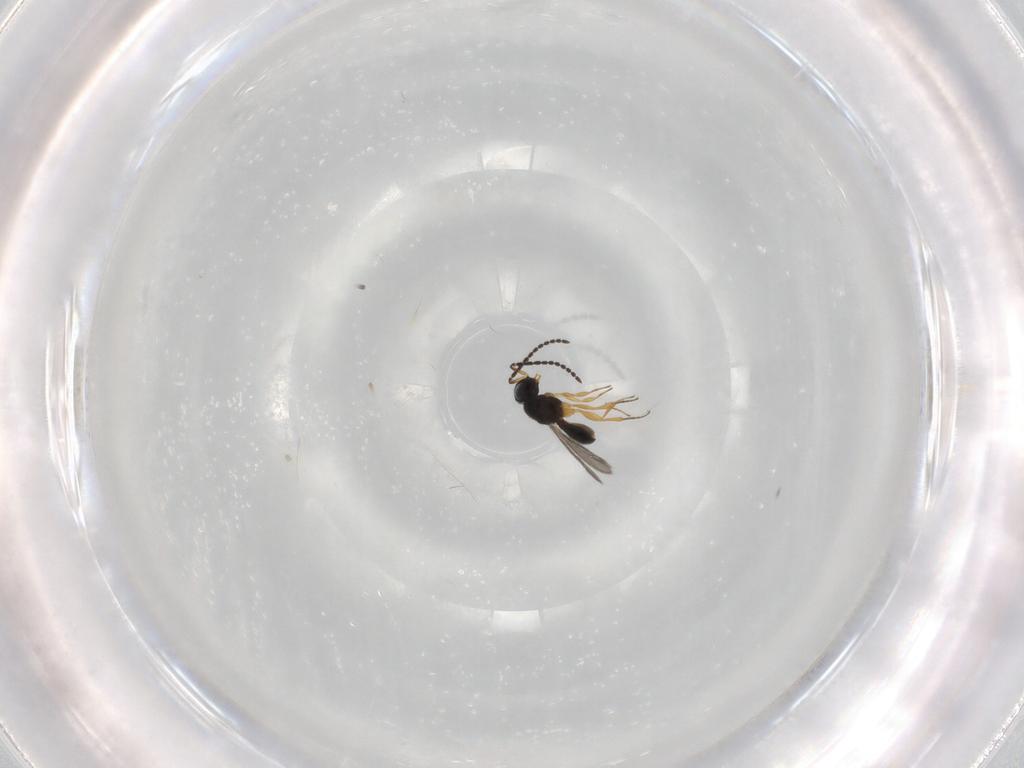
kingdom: Animalia
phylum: Arthropoda
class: Insecta
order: Hymenoptera
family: Scelionidae
